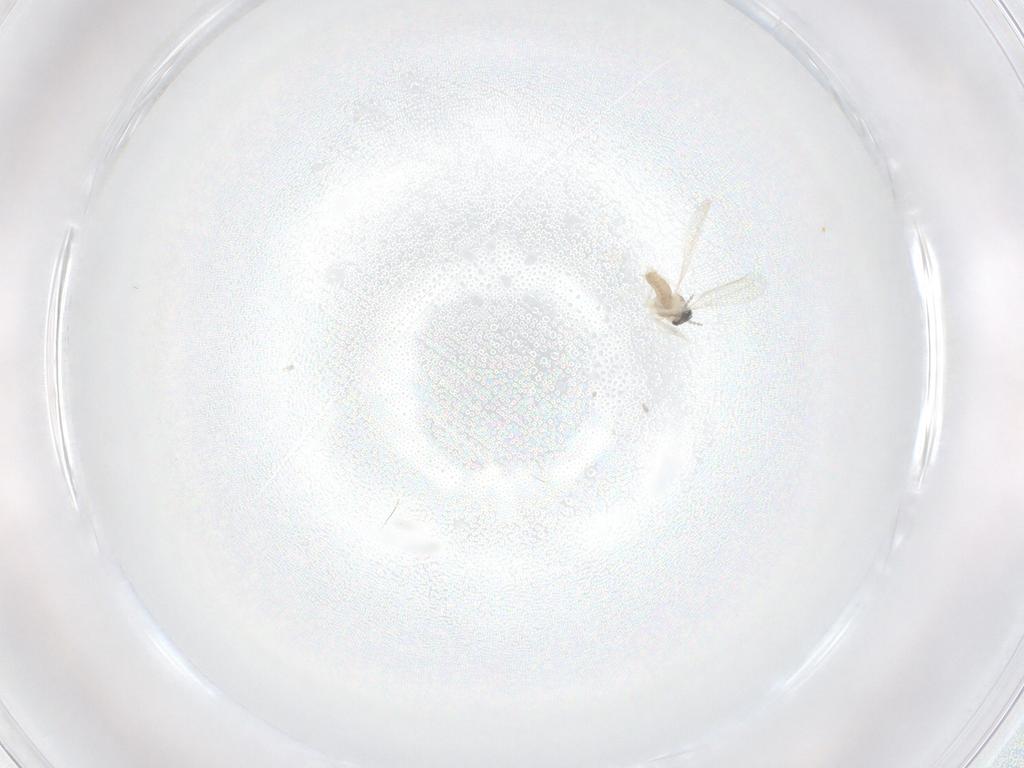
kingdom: Animalia
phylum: Arthropoda
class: Insecta
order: Diptera
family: Cecidomyiidae
